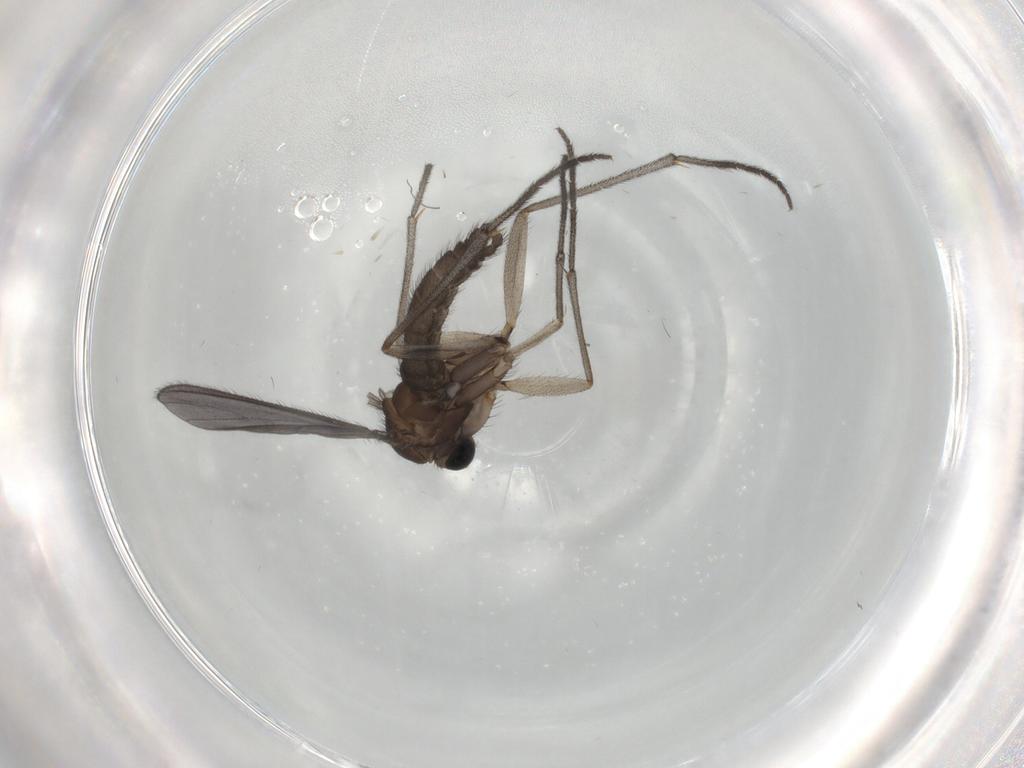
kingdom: Animalia
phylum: Arthropoda
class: Insecta
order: Diptera
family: Sciaridae
